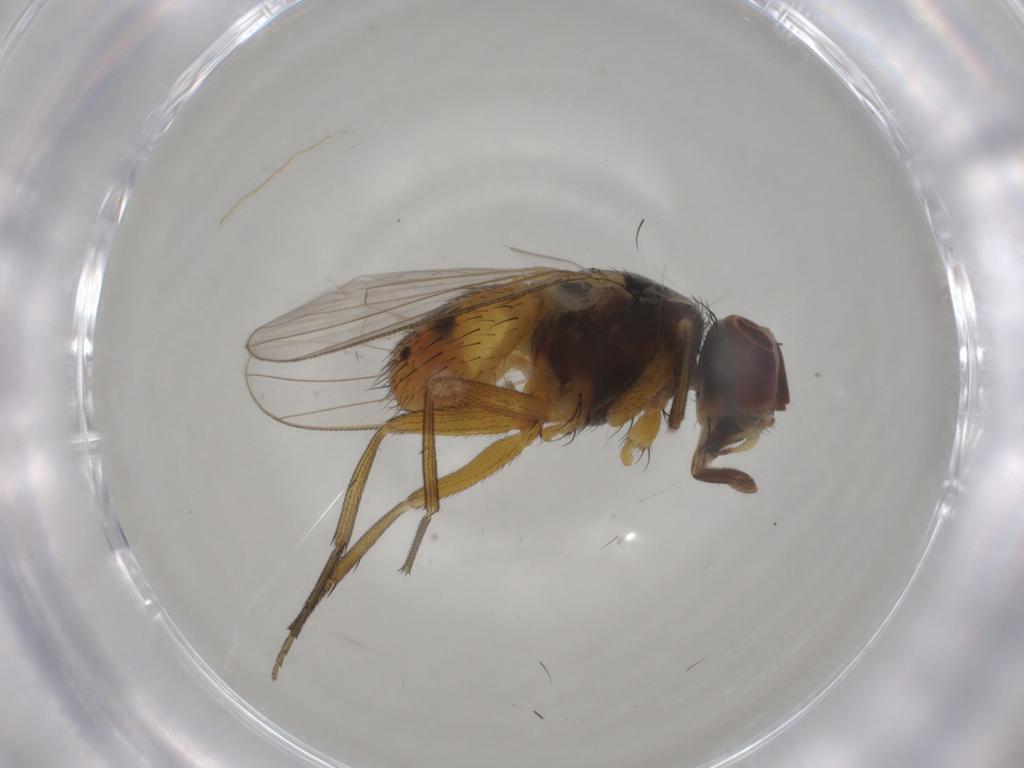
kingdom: Animalia
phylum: Arthropoda
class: Insecta
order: Diptera
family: Muscidae
